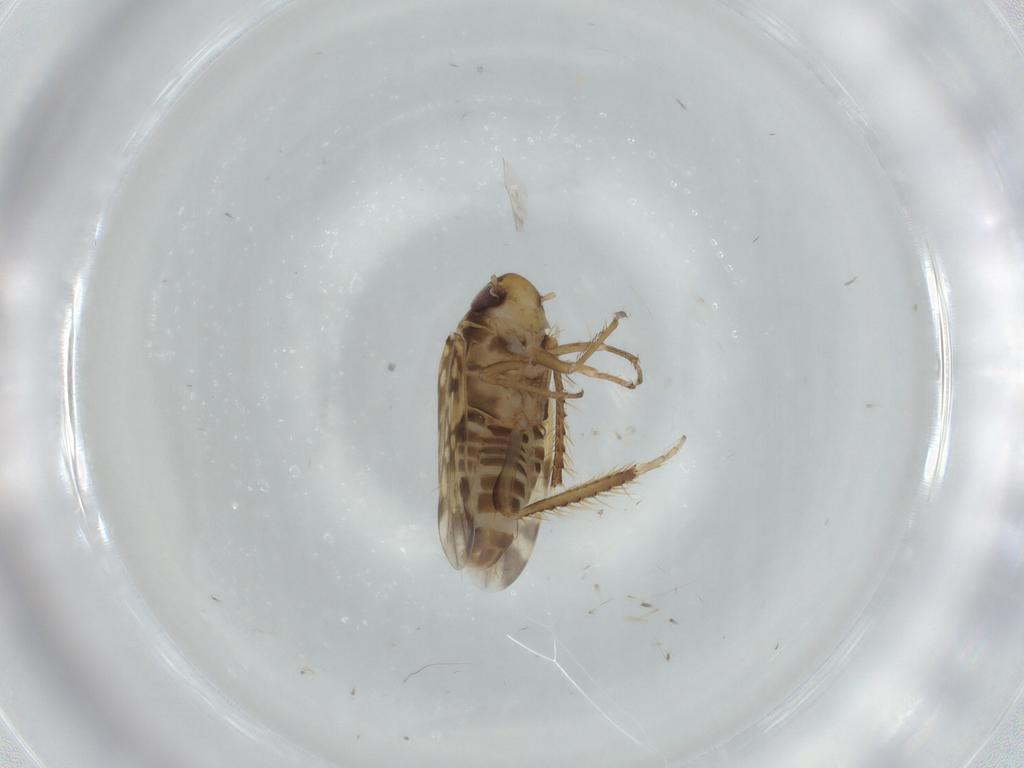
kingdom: Animalia
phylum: Arthropoda
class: Insecta
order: Hemiptera
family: Cicadellidae
